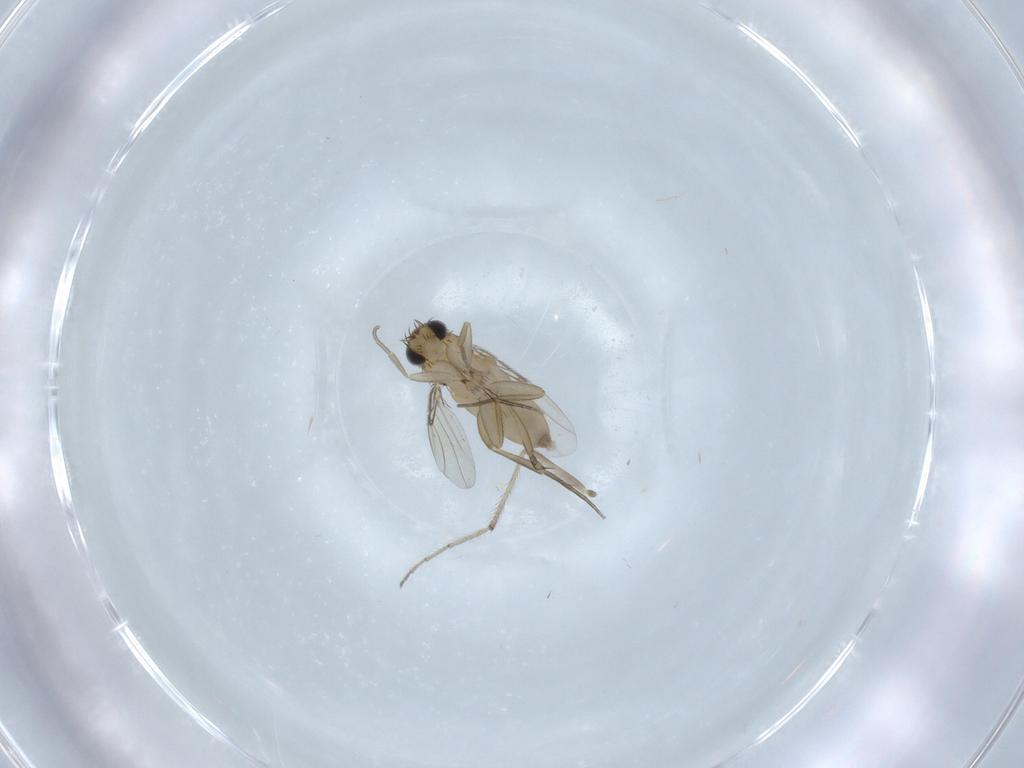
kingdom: Animalia
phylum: Arthropoda
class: Insecta
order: Diptera
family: Phoridae
